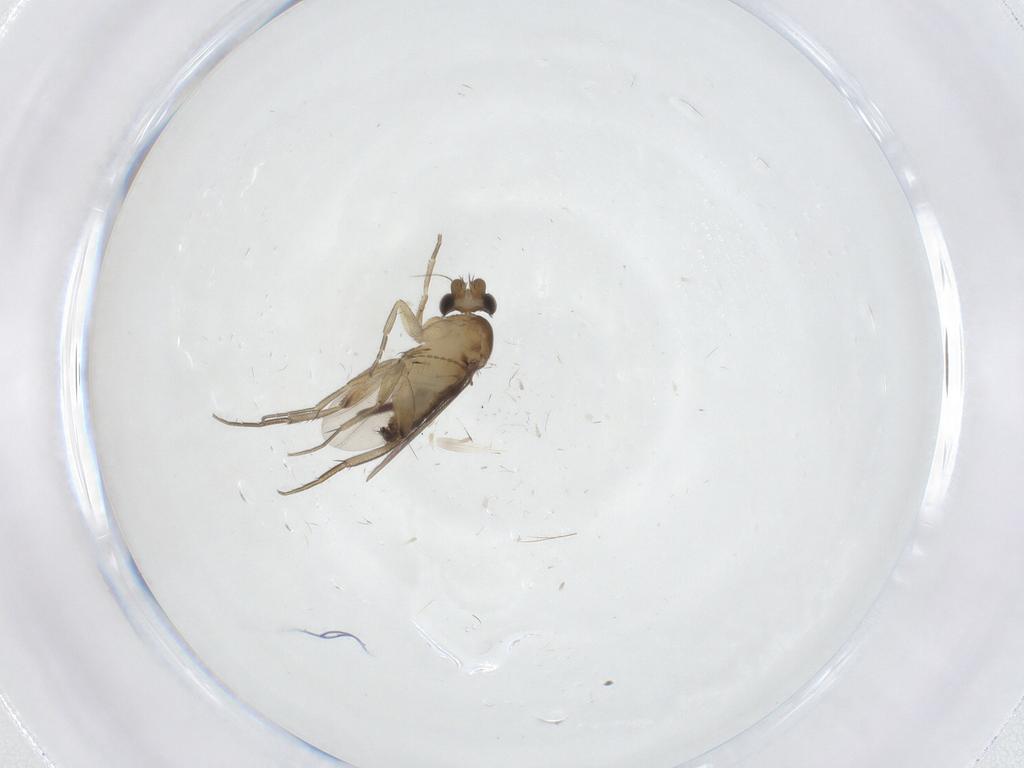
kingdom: Animalia
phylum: Arthropoda
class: Insecta
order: Diptera
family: Phoridae
